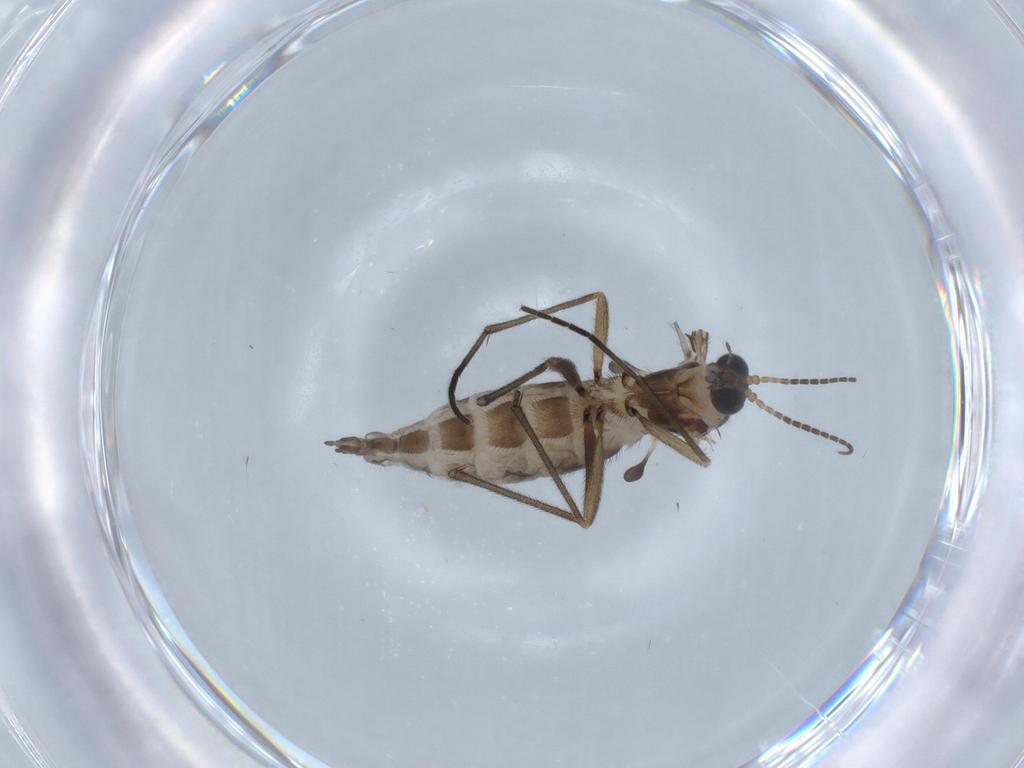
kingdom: Animalia
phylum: Arthropoda
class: Insecta
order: Diptera
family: Sciaridae
